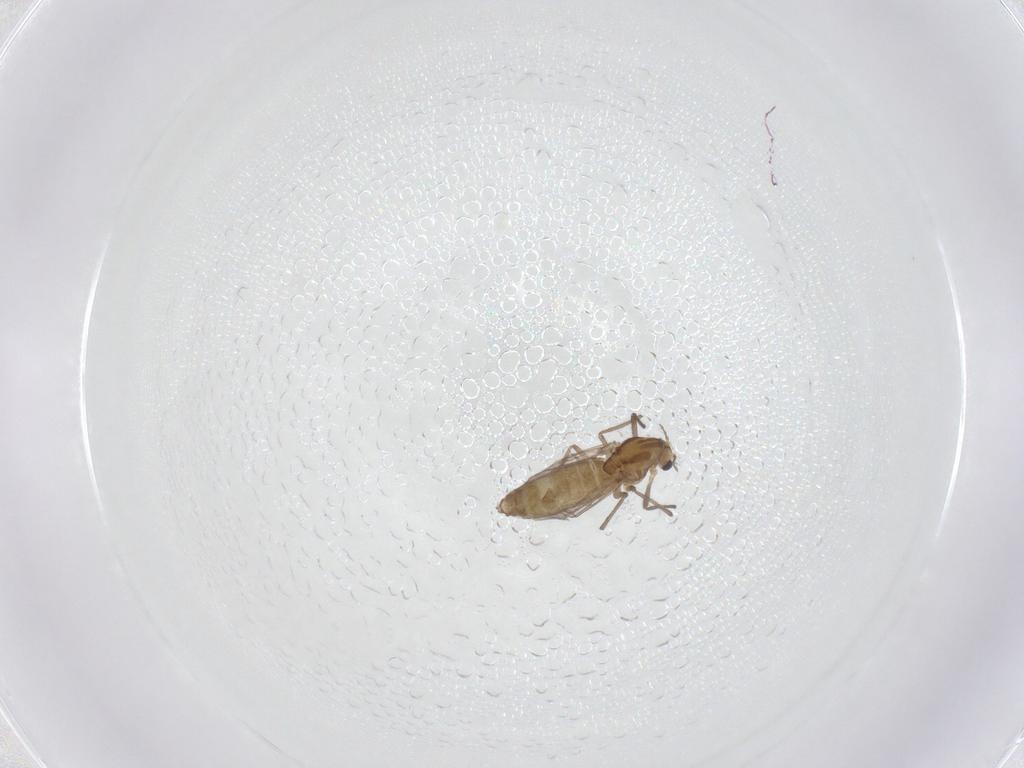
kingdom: Animalia
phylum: Arthropoda
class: Insecta
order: Diptera
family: Chironomidae
